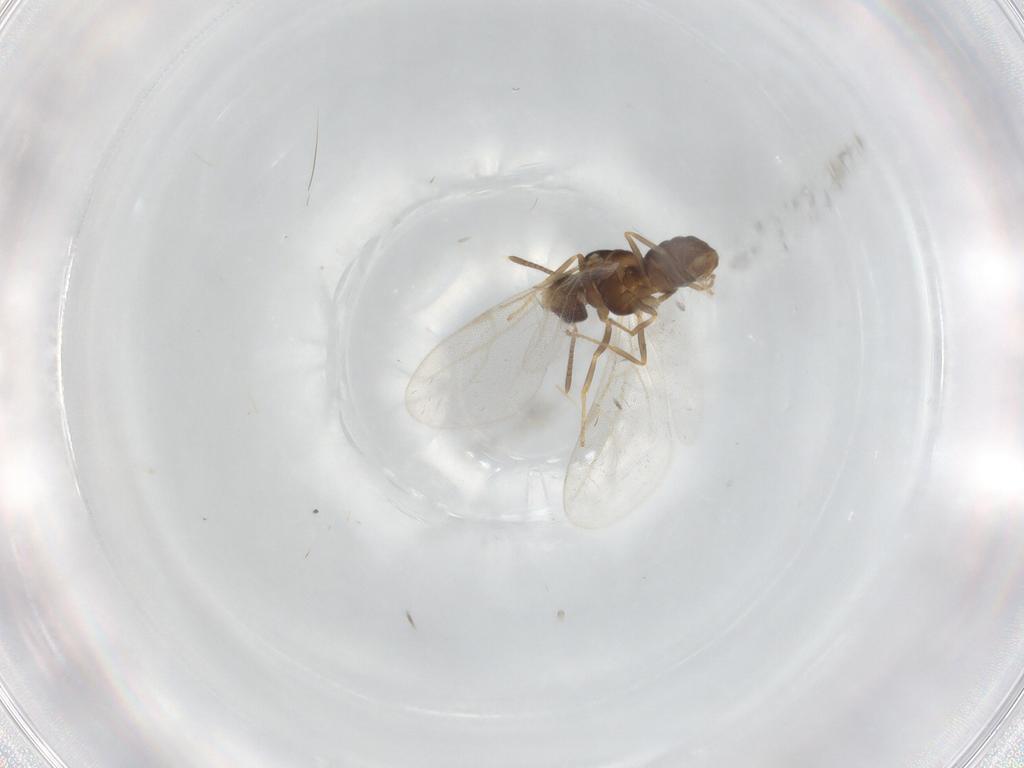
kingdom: Animalia
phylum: Arthropoda
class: Insecta
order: Hymenoptera
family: Formicidae
